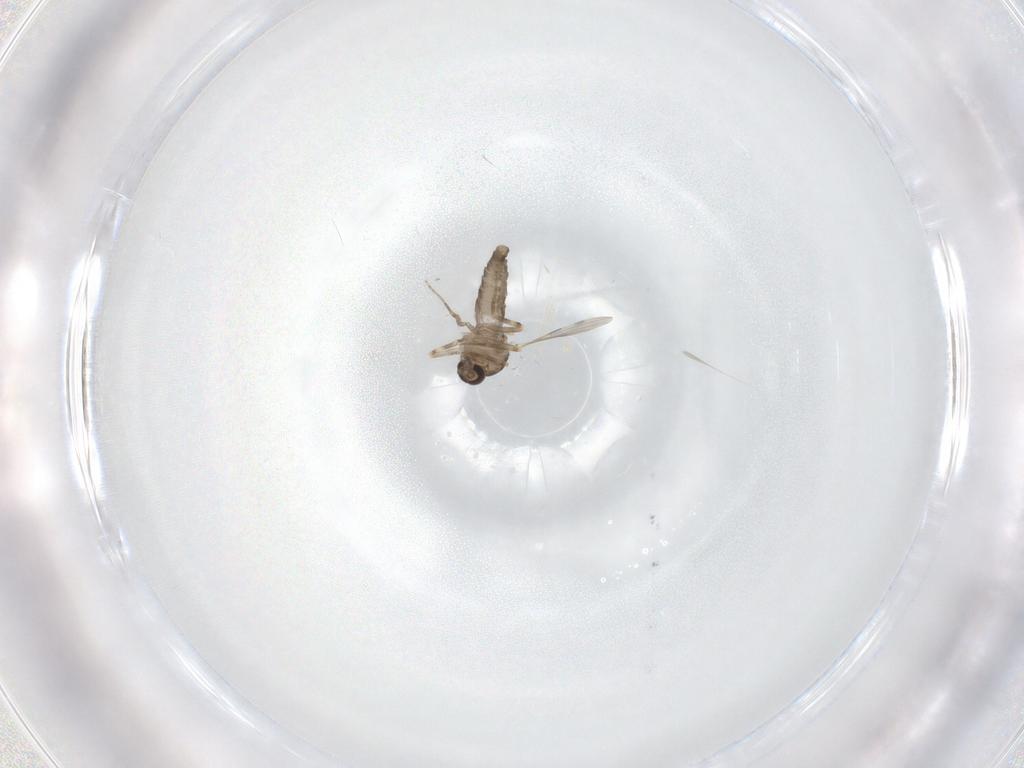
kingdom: Animalia
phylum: Arthropoda
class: Insecta
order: Diptera
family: Ceratopogonidae
